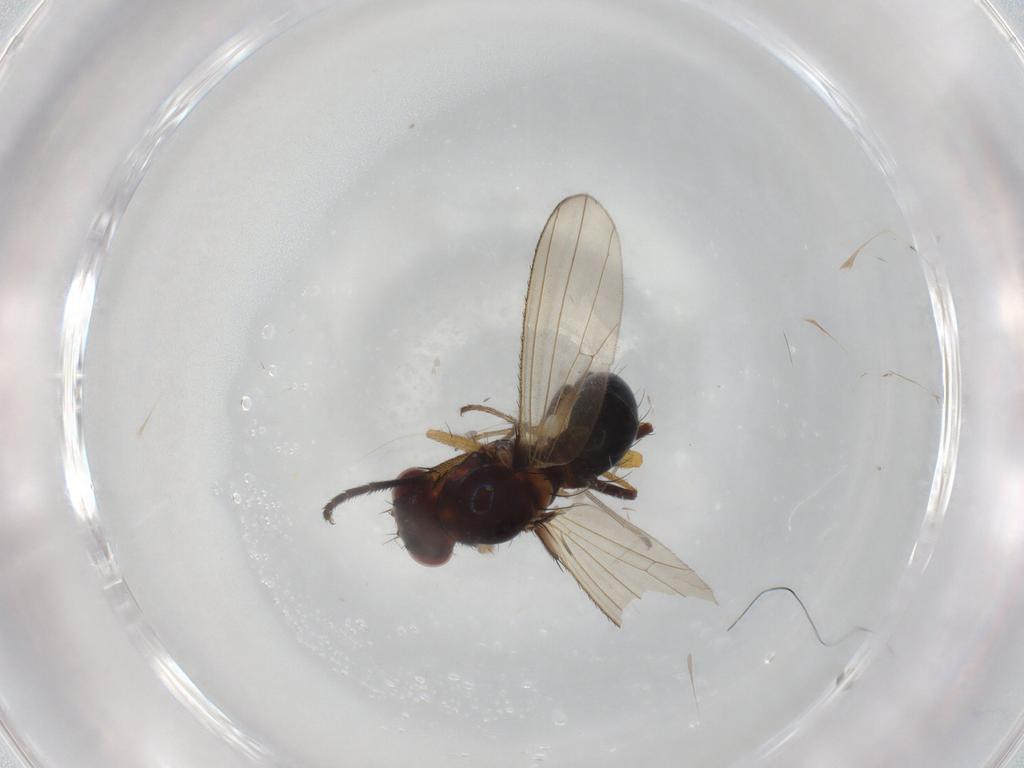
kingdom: Animalia
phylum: Arthropoda
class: Insecta
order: Diptera
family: Drosophilidae
